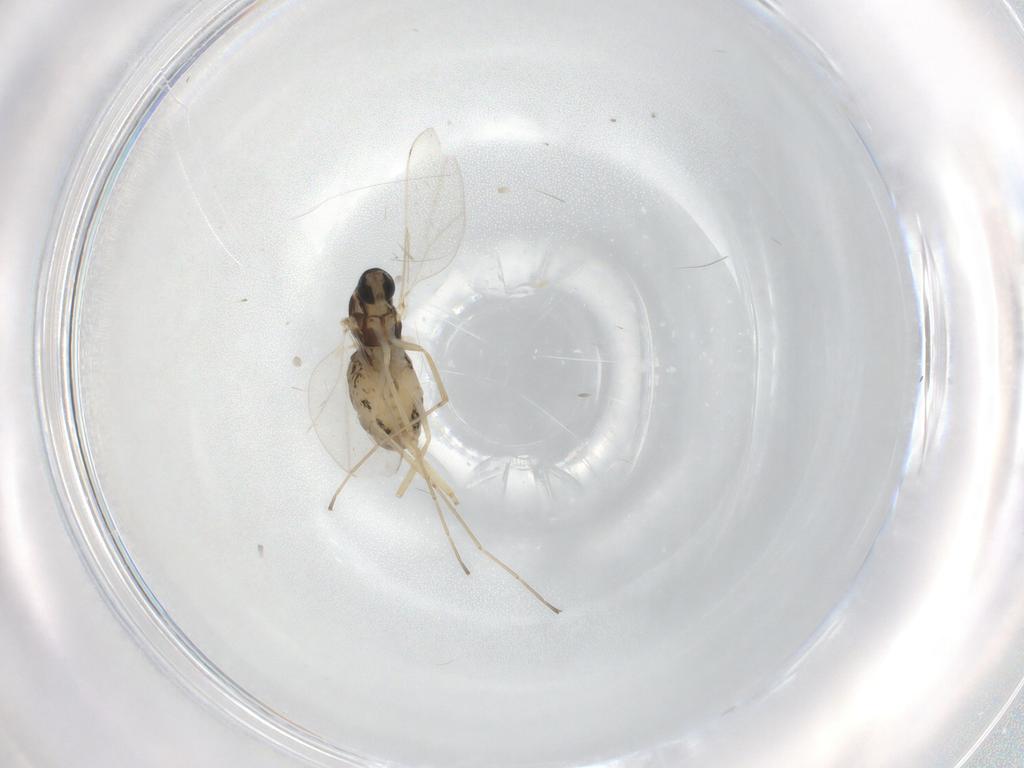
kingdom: Animalia
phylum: Arthropoda
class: Insecta
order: Diptera
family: Cecidomyiidae
